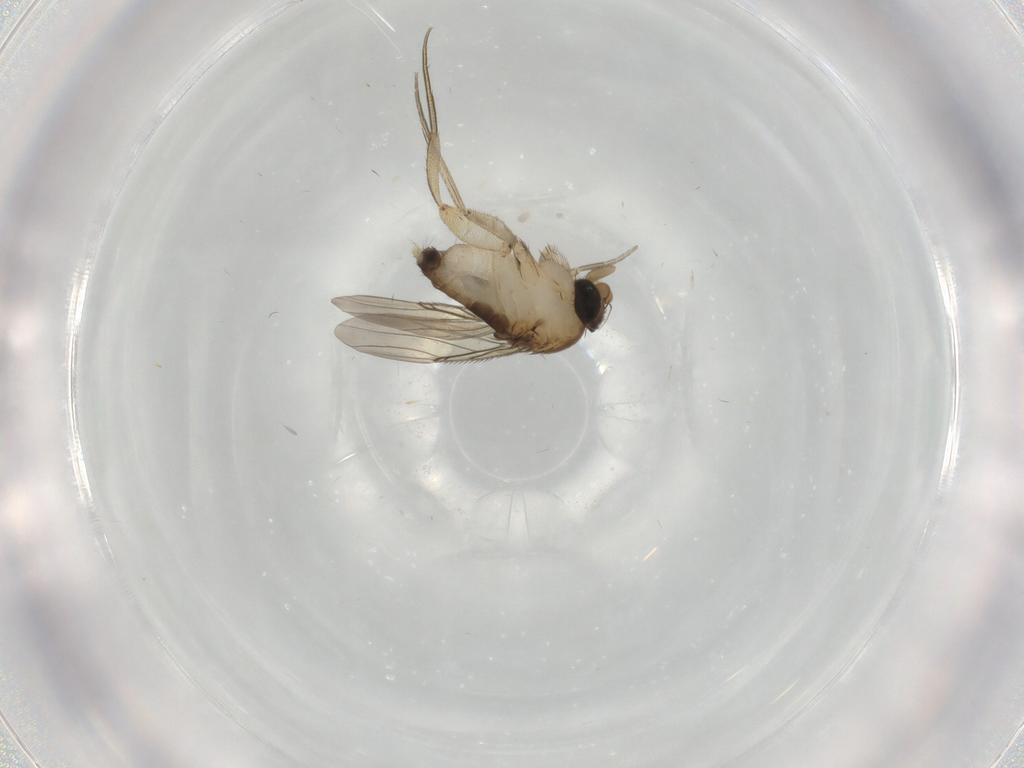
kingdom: Animalia
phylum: Arthropoda
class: Insecta
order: Diptera
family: Phoridae
